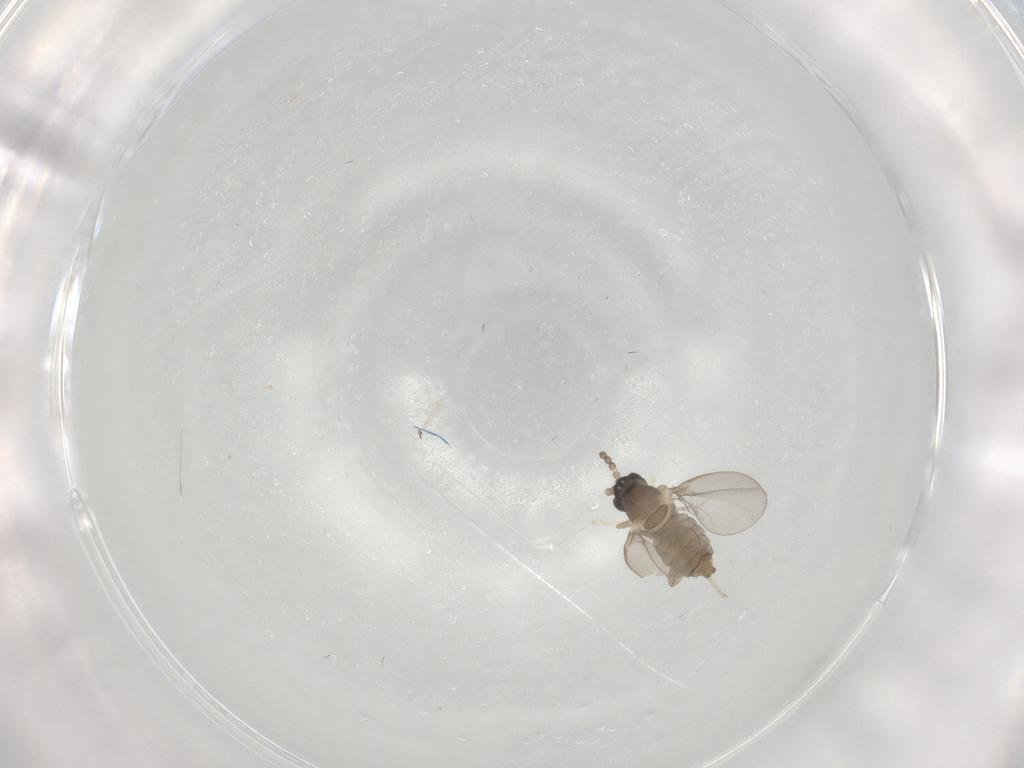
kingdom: Animalia
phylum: Arthropoda
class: Insecta
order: Diptera
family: Cecidomyiidae
